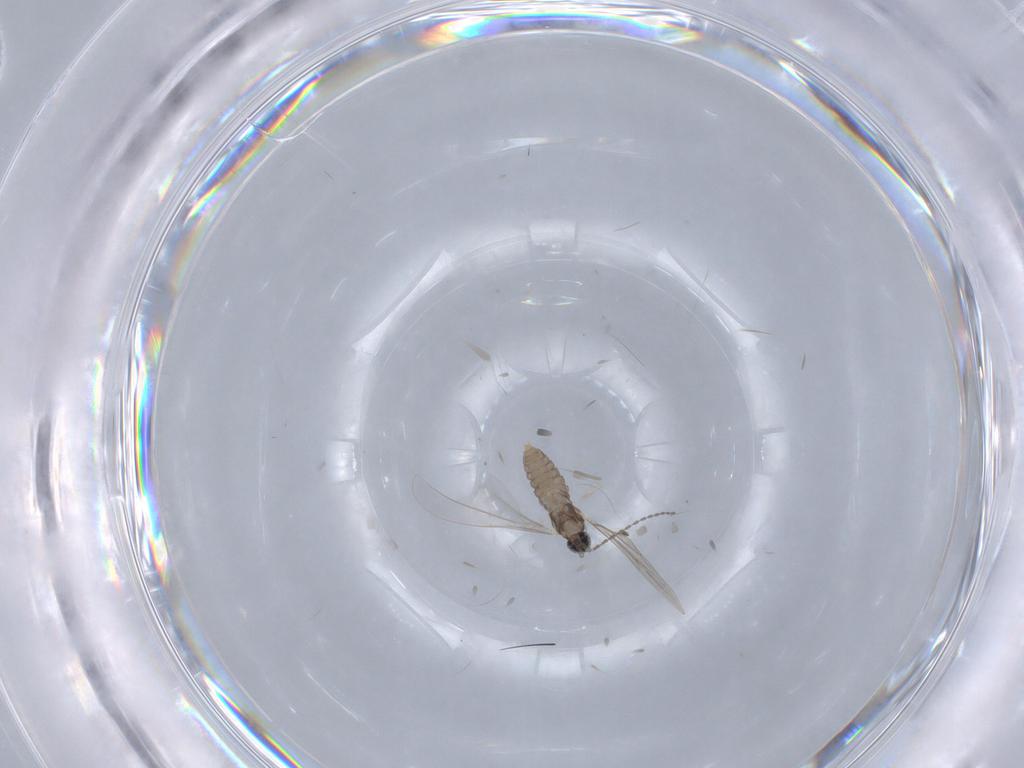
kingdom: Animalia
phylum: Arthropoda
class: Insecta
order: Diptera
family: Cecidomyiidae
